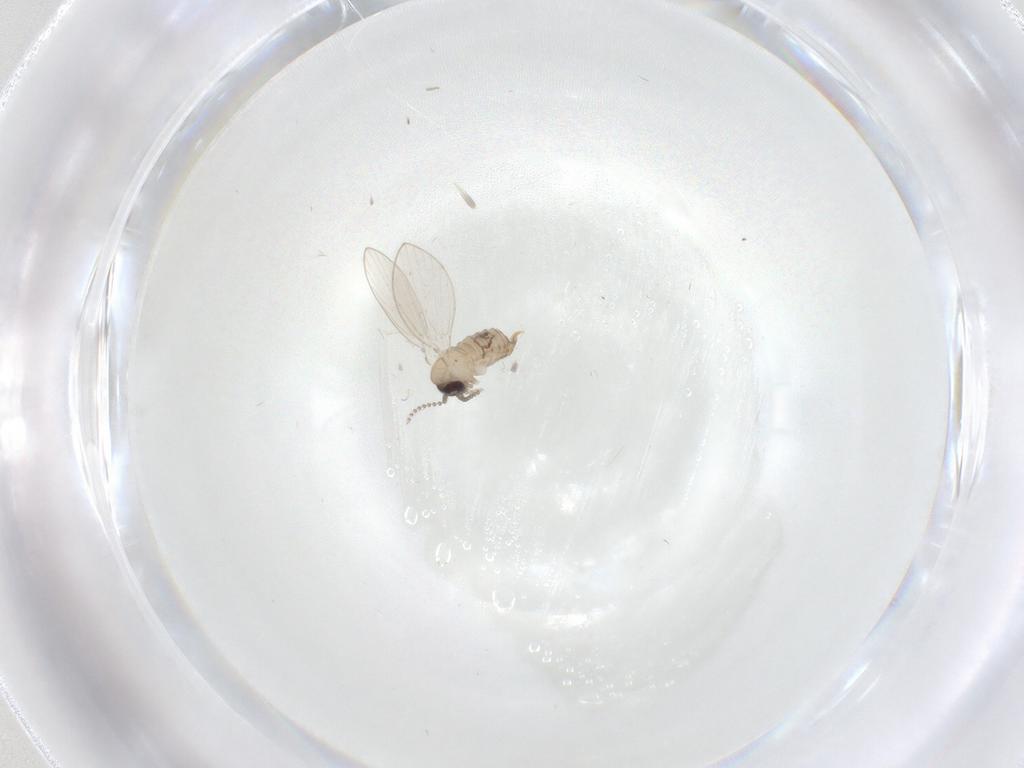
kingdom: Animalia
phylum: Arthropoda
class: Insecta
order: Diptera
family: Psychodidae
